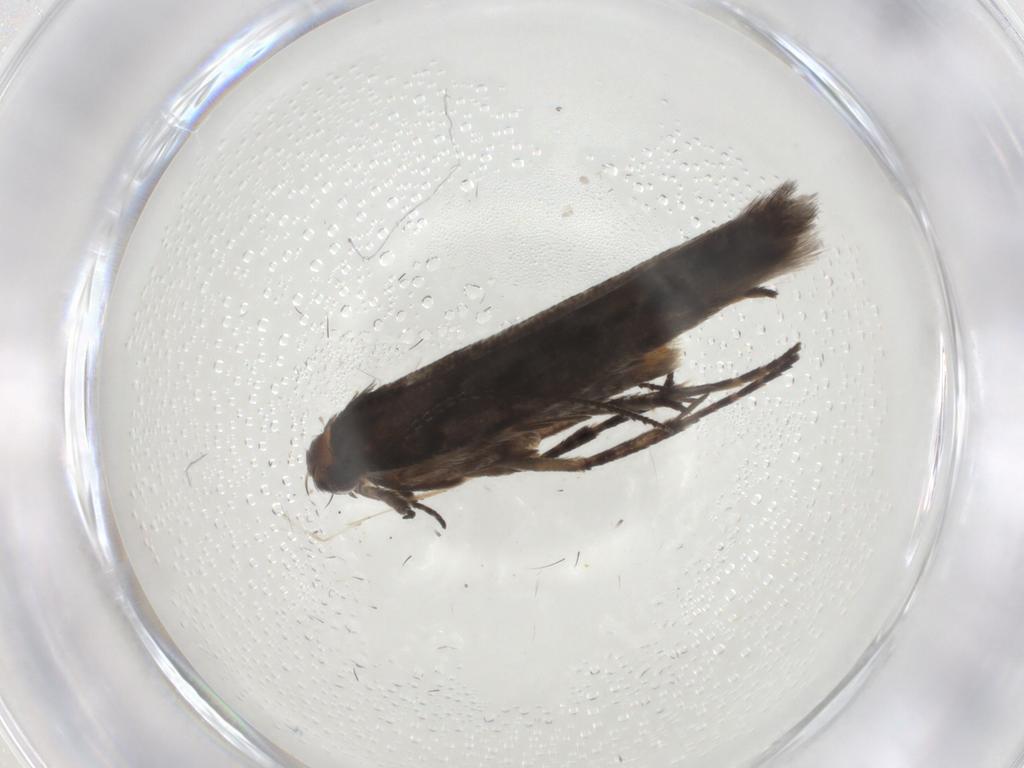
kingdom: Animalia
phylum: Arthropoda
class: Insecta
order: Lepidoptera
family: Gelechiidae
